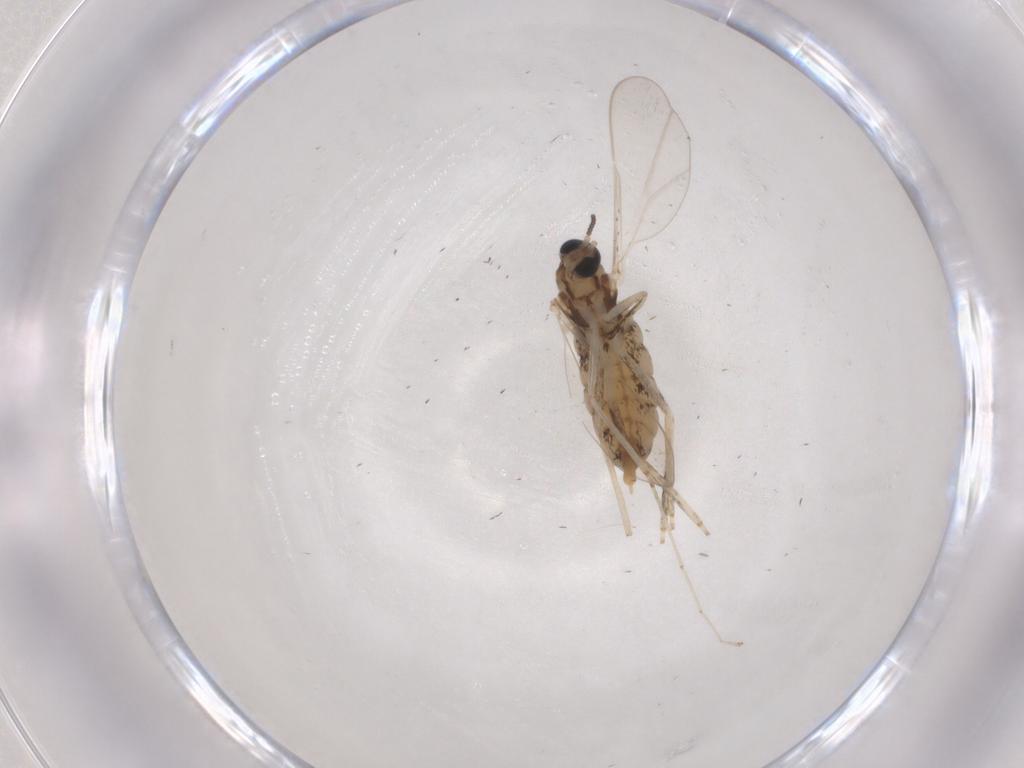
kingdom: Animalia
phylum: Arthropoda
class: Insecta
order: Diptera
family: Cecidomyiidae
